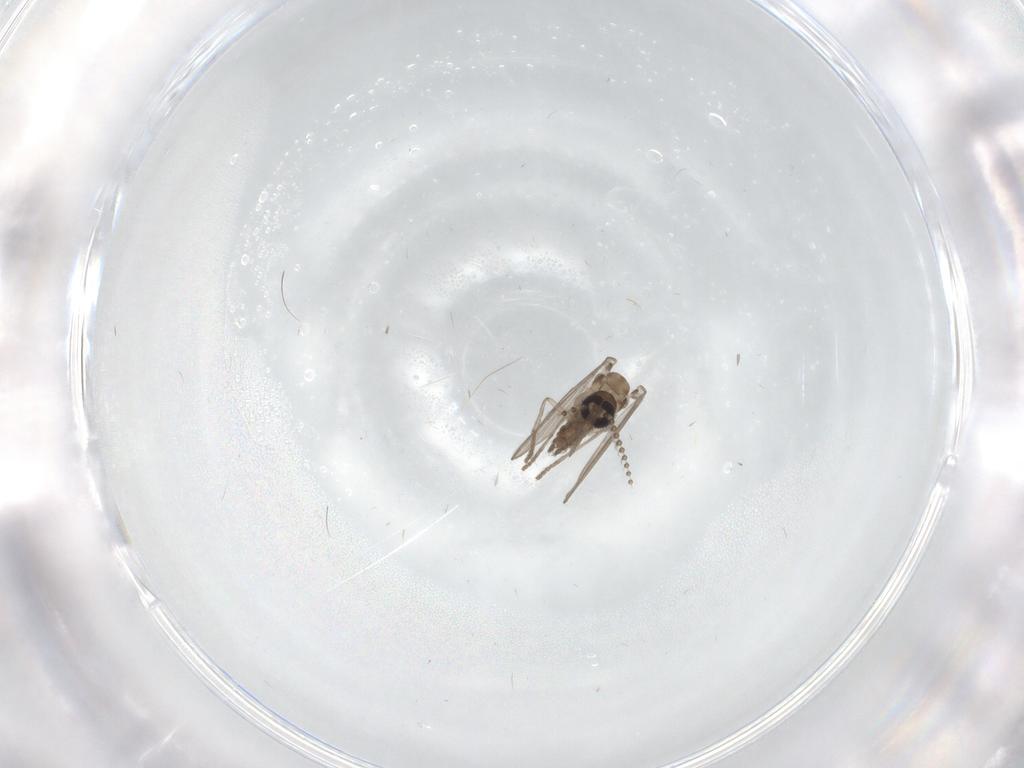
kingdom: Animalia
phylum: Arthropoda
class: Insecta
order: Diptera
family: Psychodidae
